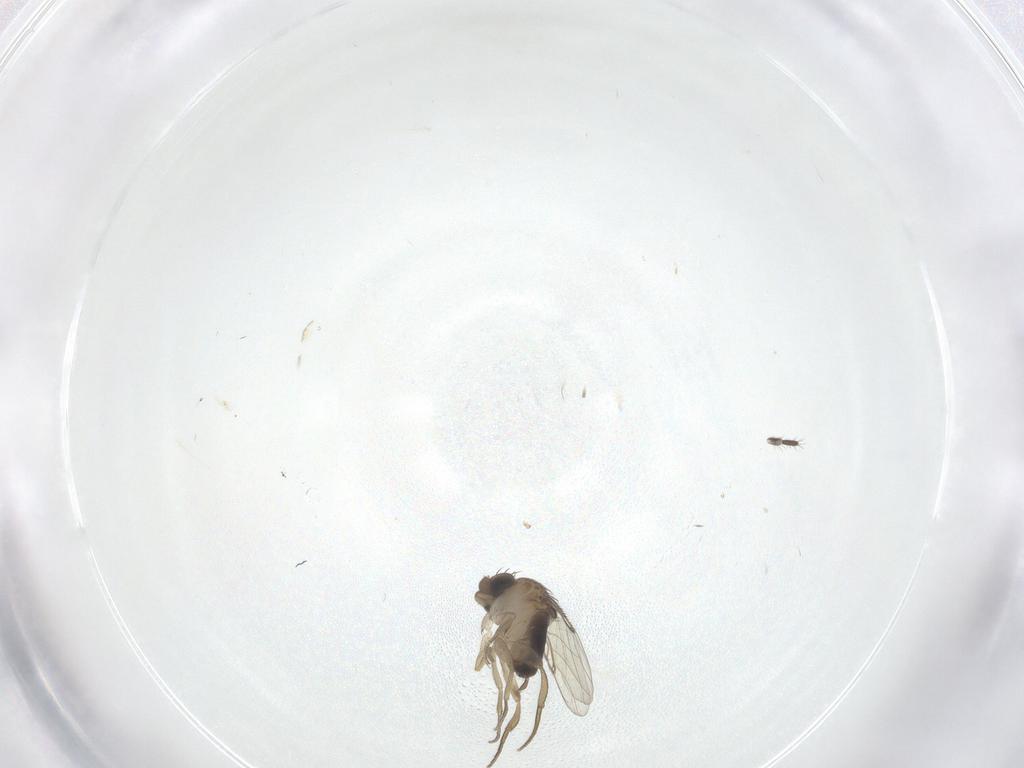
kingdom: Animalia
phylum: Arthropoda
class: Insecta
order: Diptera
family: Limoniidae
